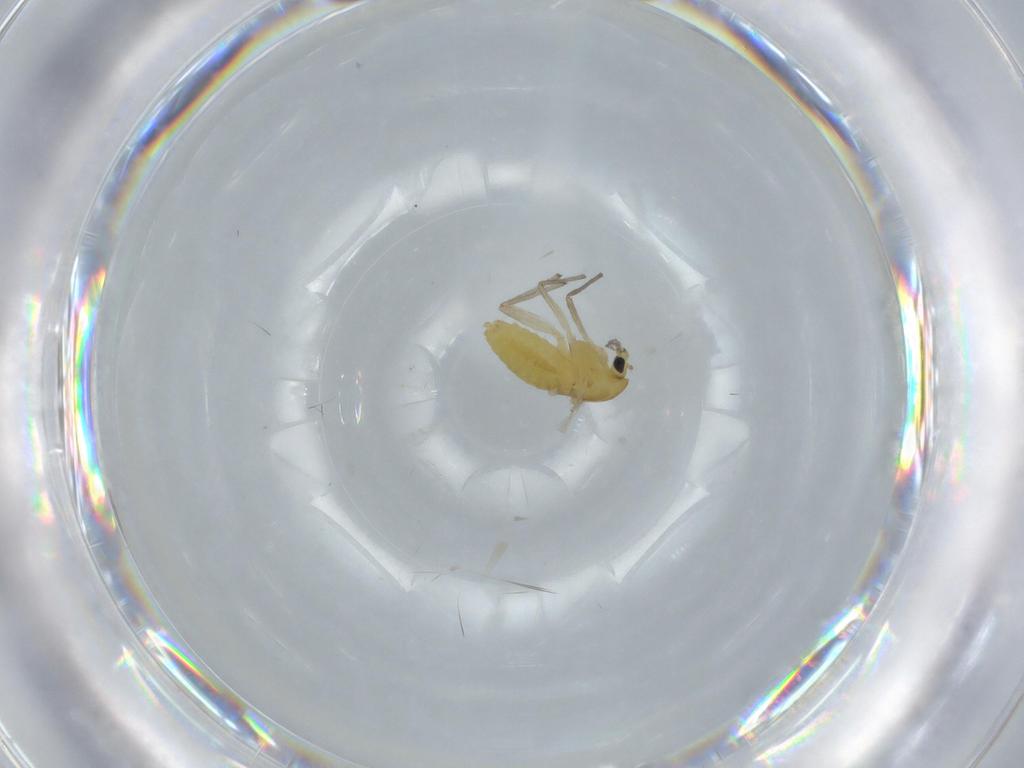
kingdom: Animalia
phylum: Arthropoda
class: Insecta
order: Diptera
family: Chironomidae
